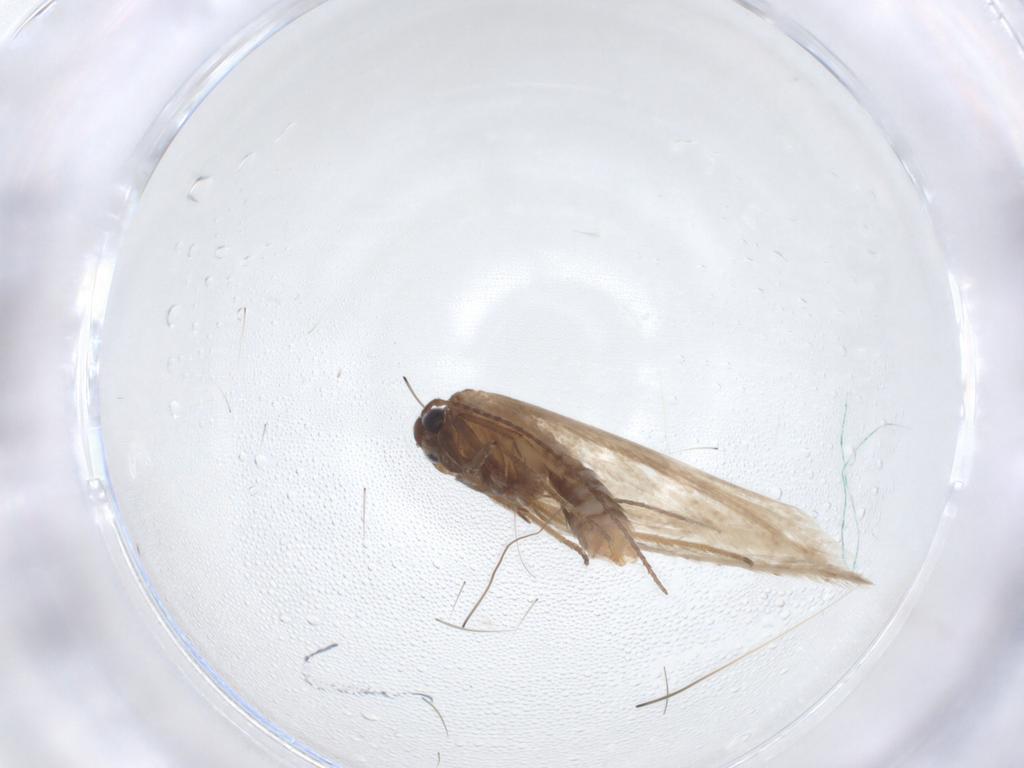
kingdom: Animalia
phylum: Arthropoda
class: Insecta
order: Lepidoptera
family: Gelechiidae
